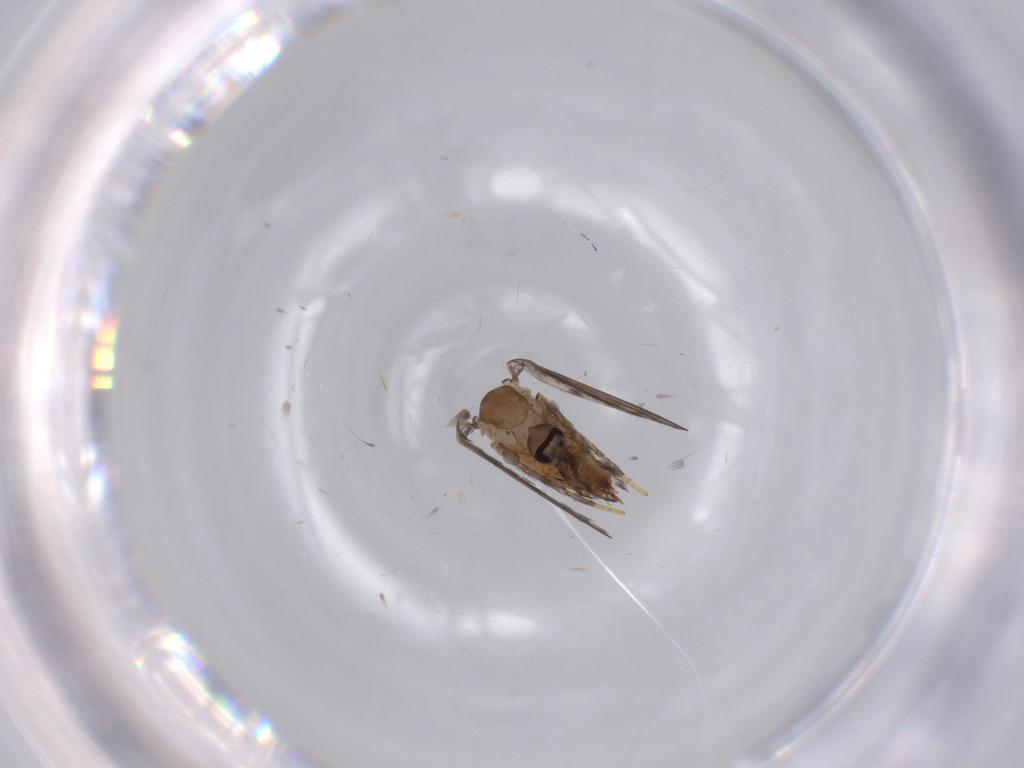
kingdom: Animalia
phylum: Arthropoda
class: Insecta
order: Diptera
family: Psychodidae
